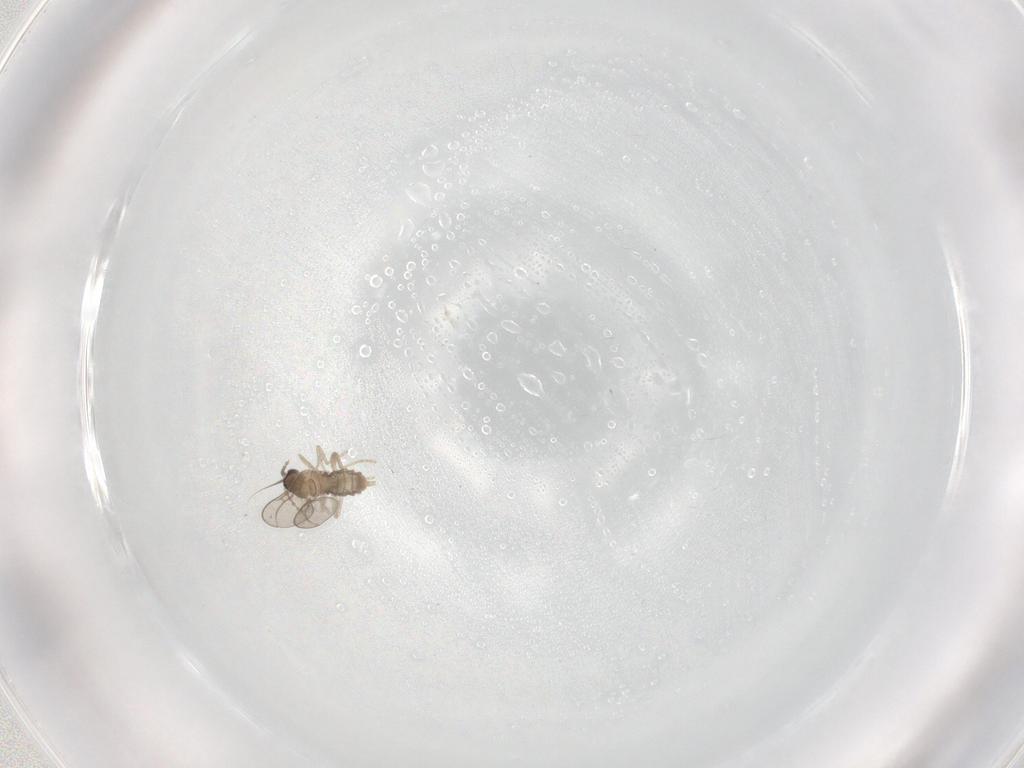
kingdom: Animalia
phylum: Arthropoda
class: Insecta
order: Diptera
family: Cecidomyiidae
